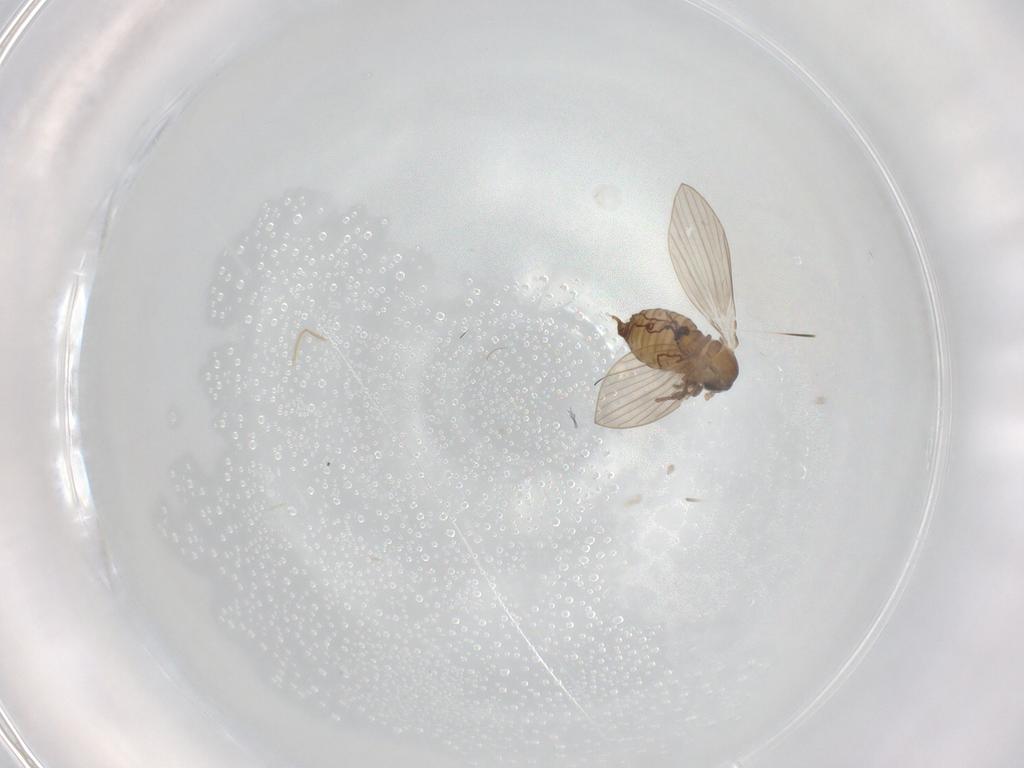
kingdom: Animalia
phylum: Arthropoda
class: Insecta
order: Diptera
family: Psychodidae
